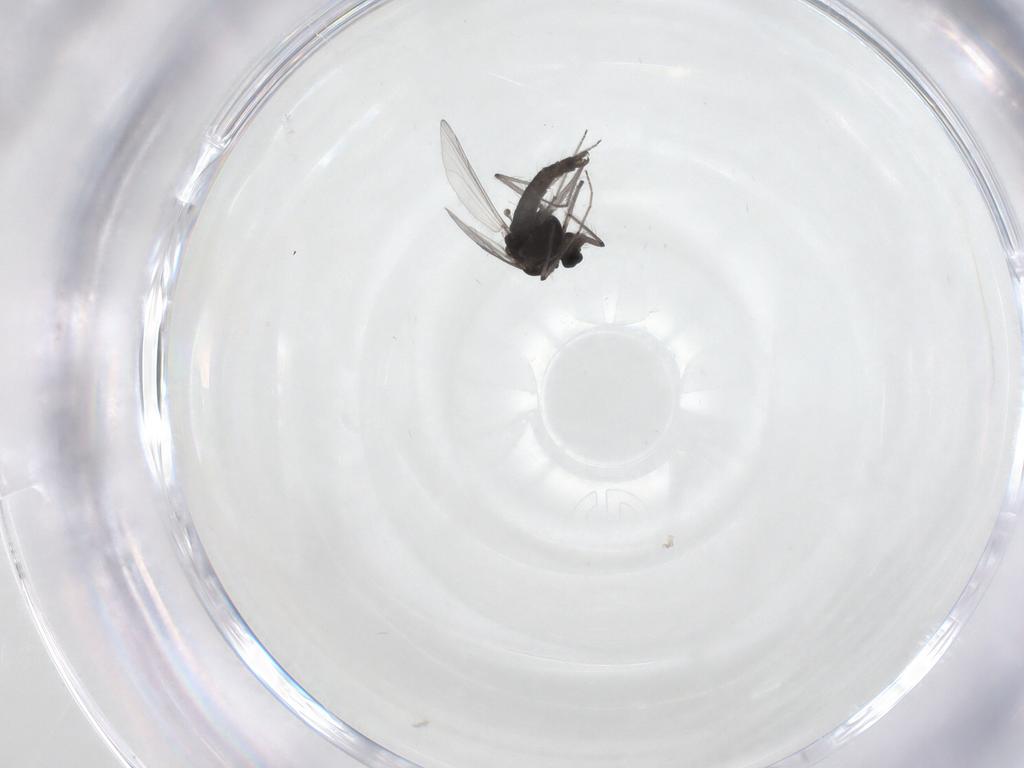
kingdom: Animalia
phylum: Arthropoda
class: Insecta
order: Diptera
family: Chironomidae
